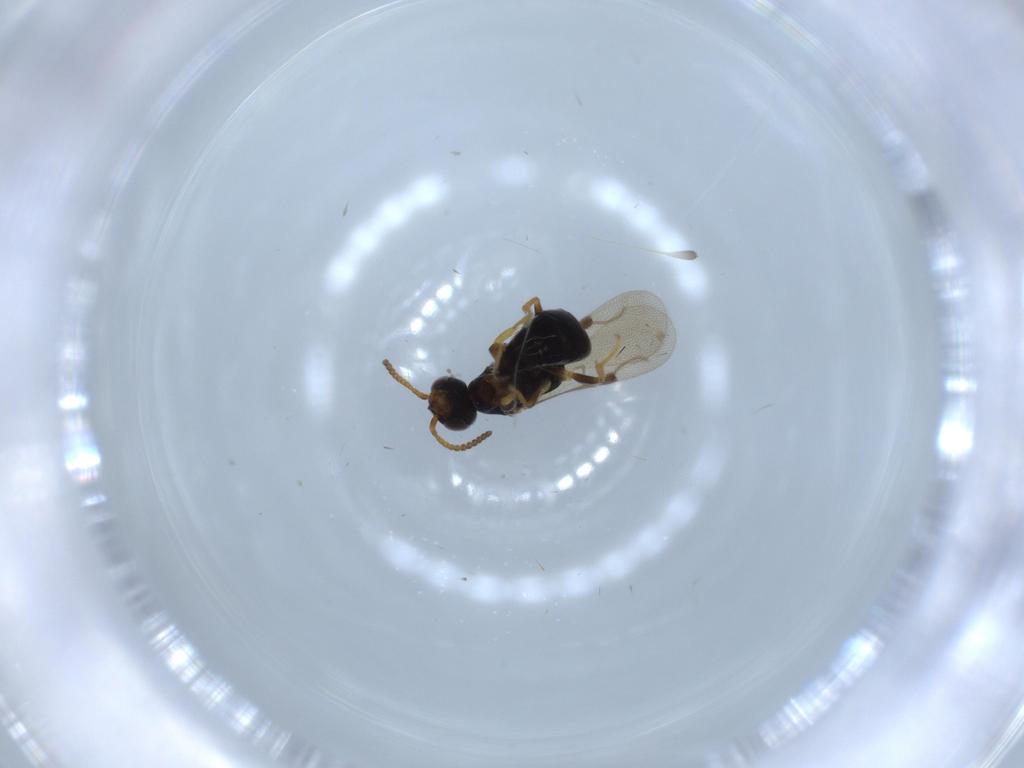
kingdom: Animalia
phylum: Arthropoda
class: Insecta
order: Hymenoptera
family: Bethylidae
